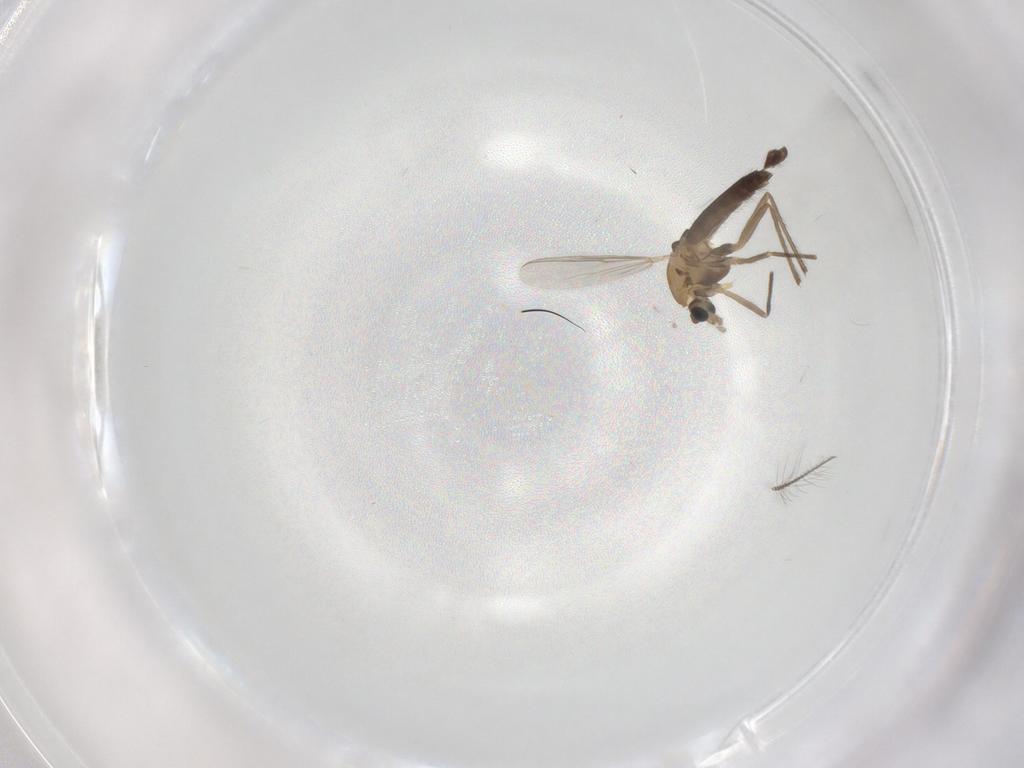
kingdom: Animalia
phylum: Arthropoda
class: Insecta
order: Diptera
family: Chironomidae
